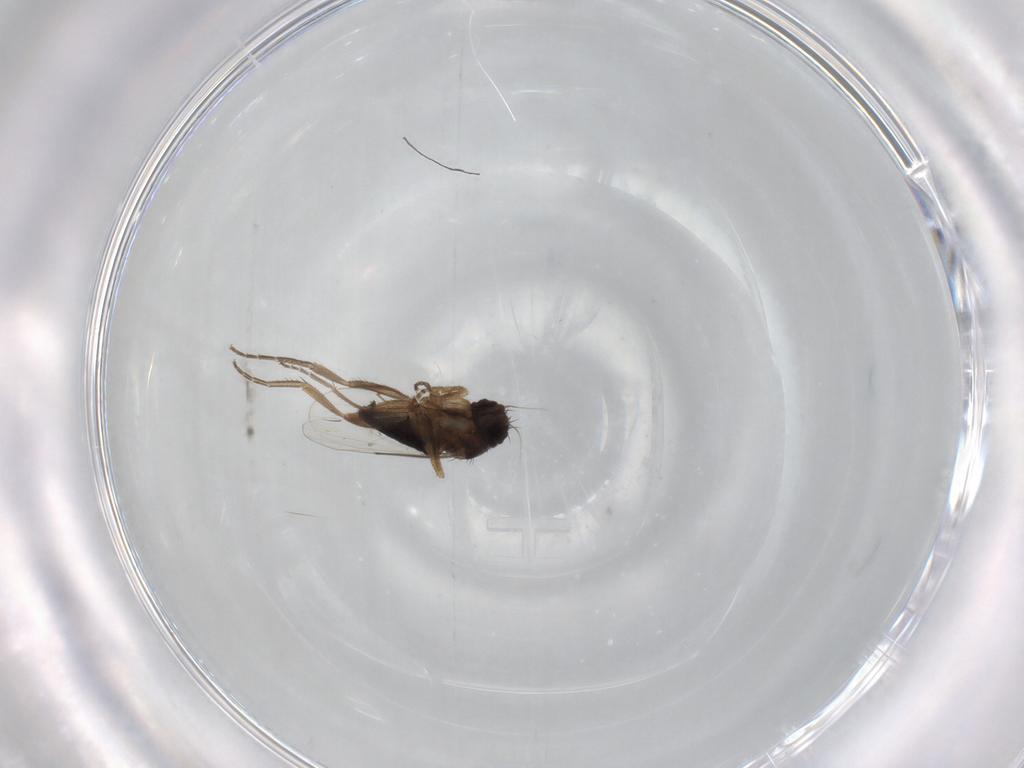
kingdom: Animalia
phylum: Arthropoda
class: Insecta
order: Diptera
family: Phoridae
